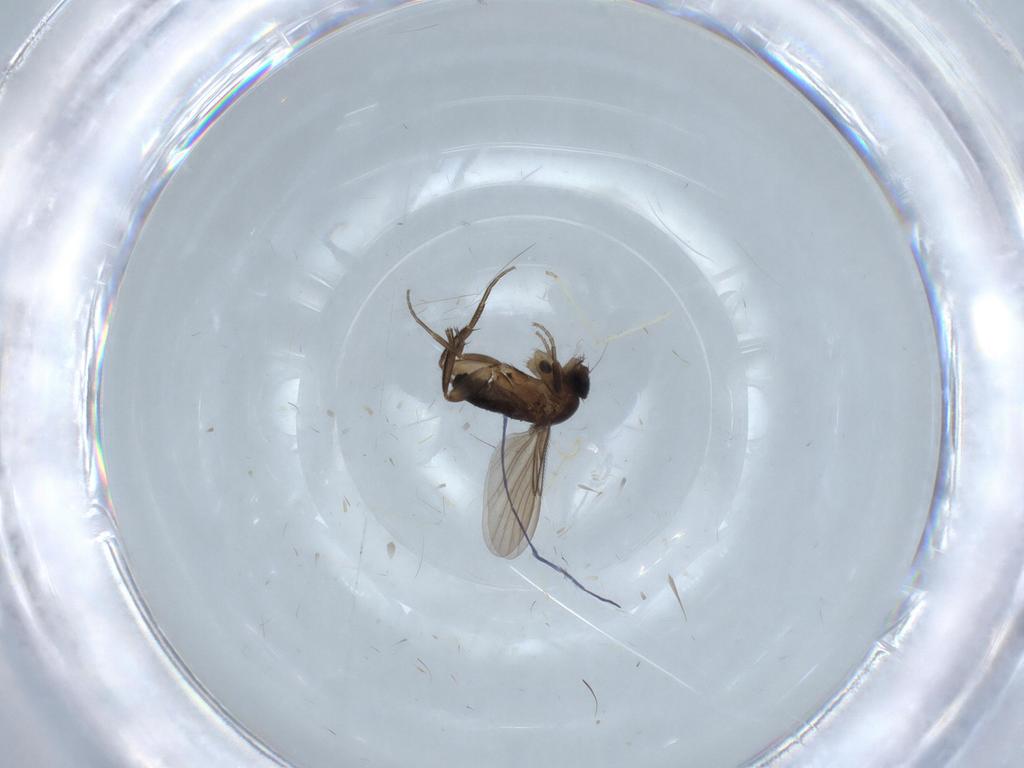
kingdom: Animalia
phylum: Arthropoda
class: Insecta
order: Diptera
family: Phoridae
